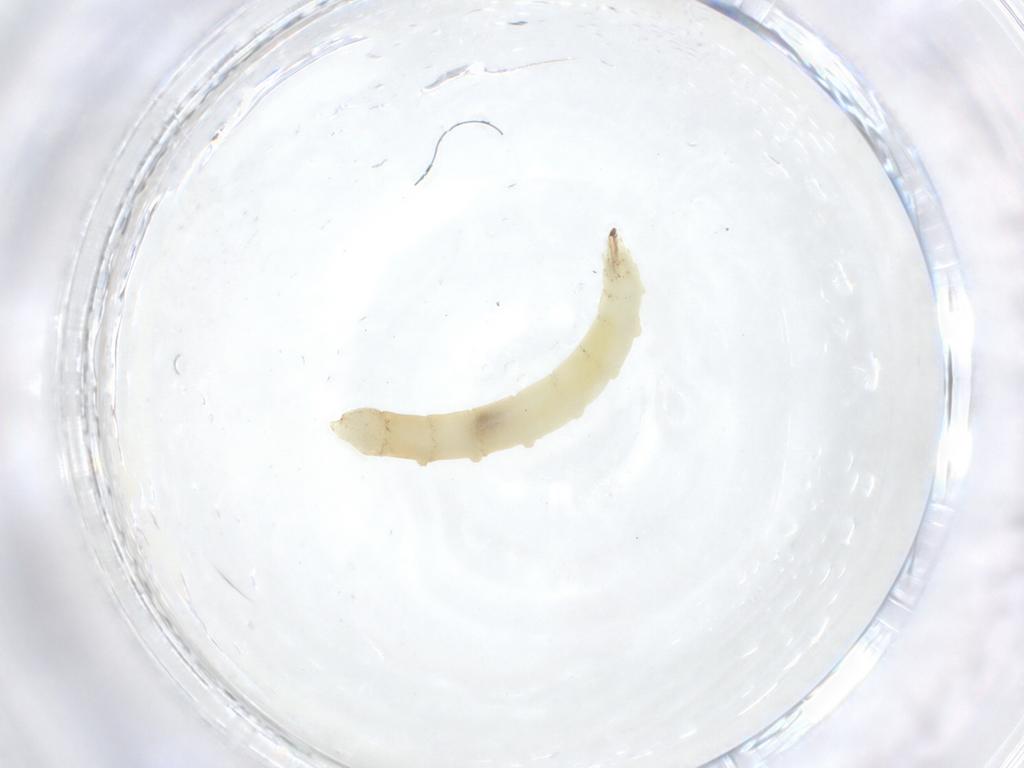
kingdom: Animalia
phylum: Arthropoda
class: Insecta
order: Diptera
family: Hybotidae
